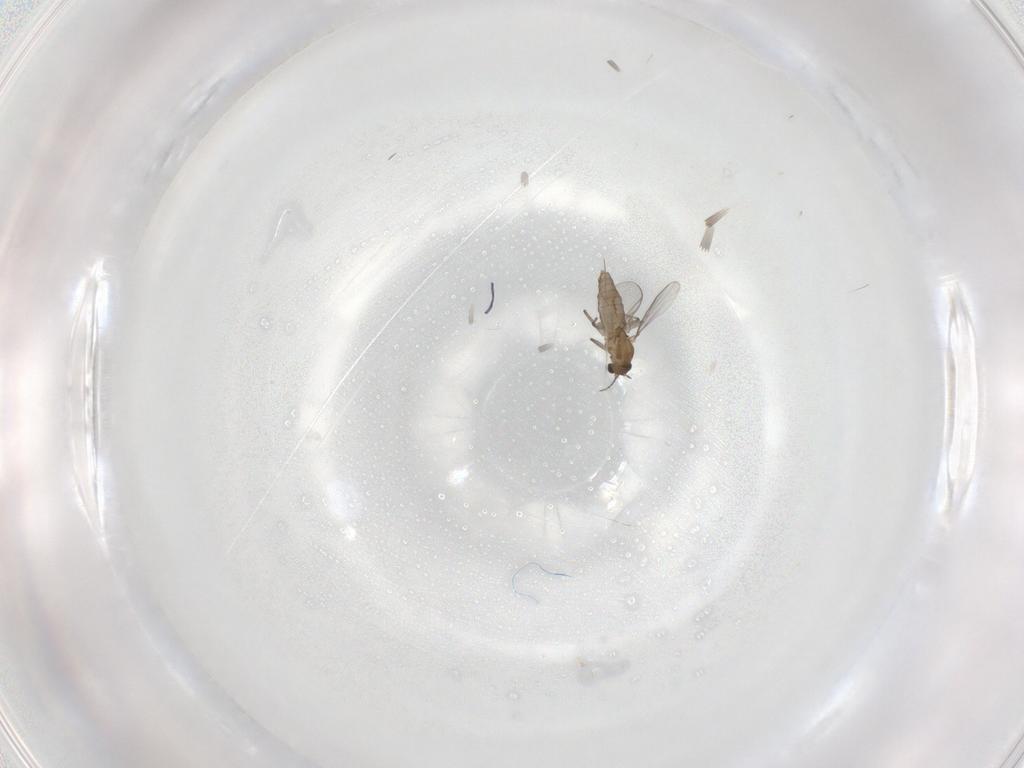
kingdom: Animalia
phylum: Arthropoda
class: Insecta
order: Diptera
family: Chironomidae
